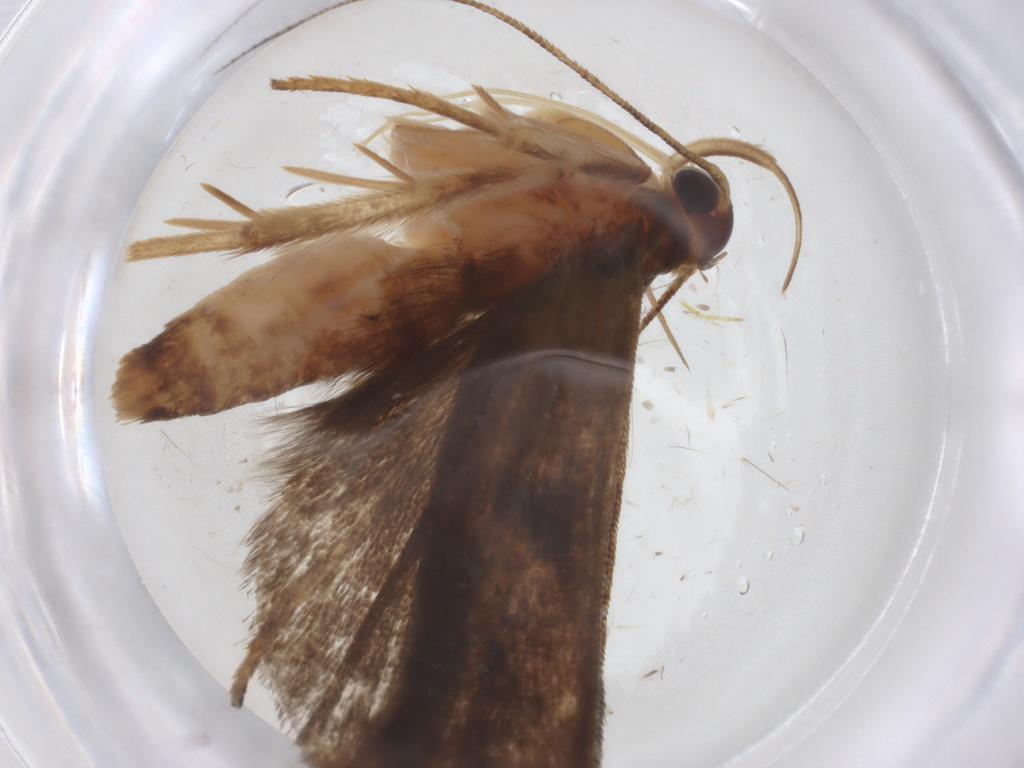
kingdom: Animalia
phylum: Arthropoda
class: Insecta
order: Lepidoptera
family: Nepticulidae
